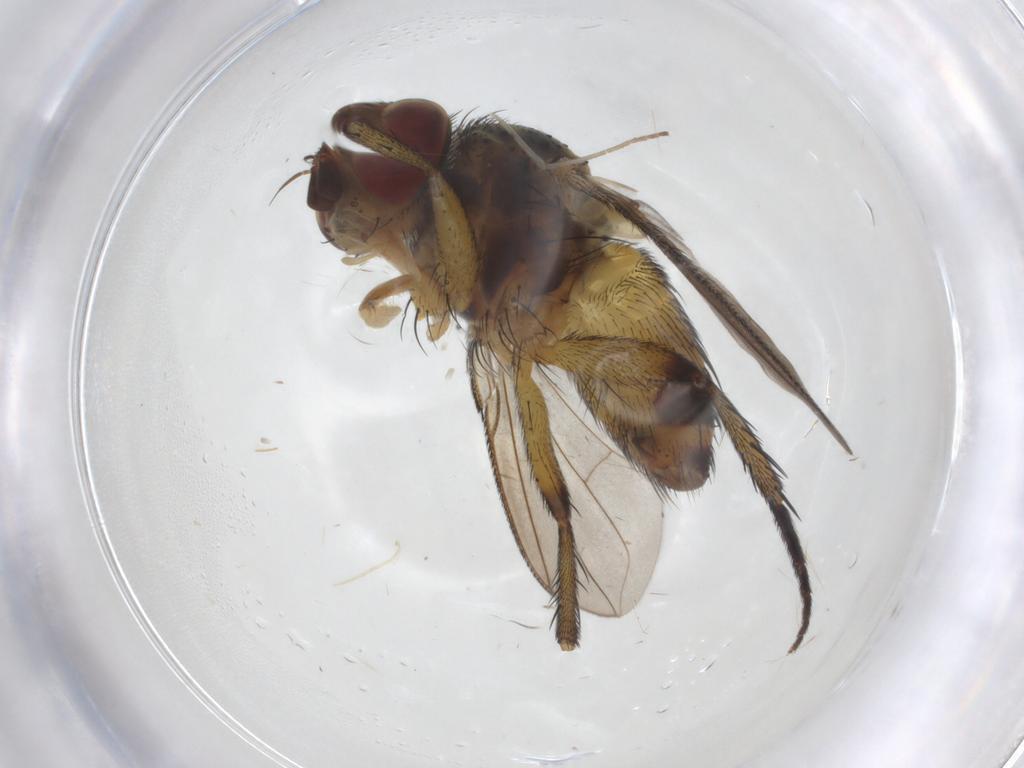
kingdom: Animalia
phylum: Arthropoda
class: Insecta
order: Diptera
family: Tachinidae
